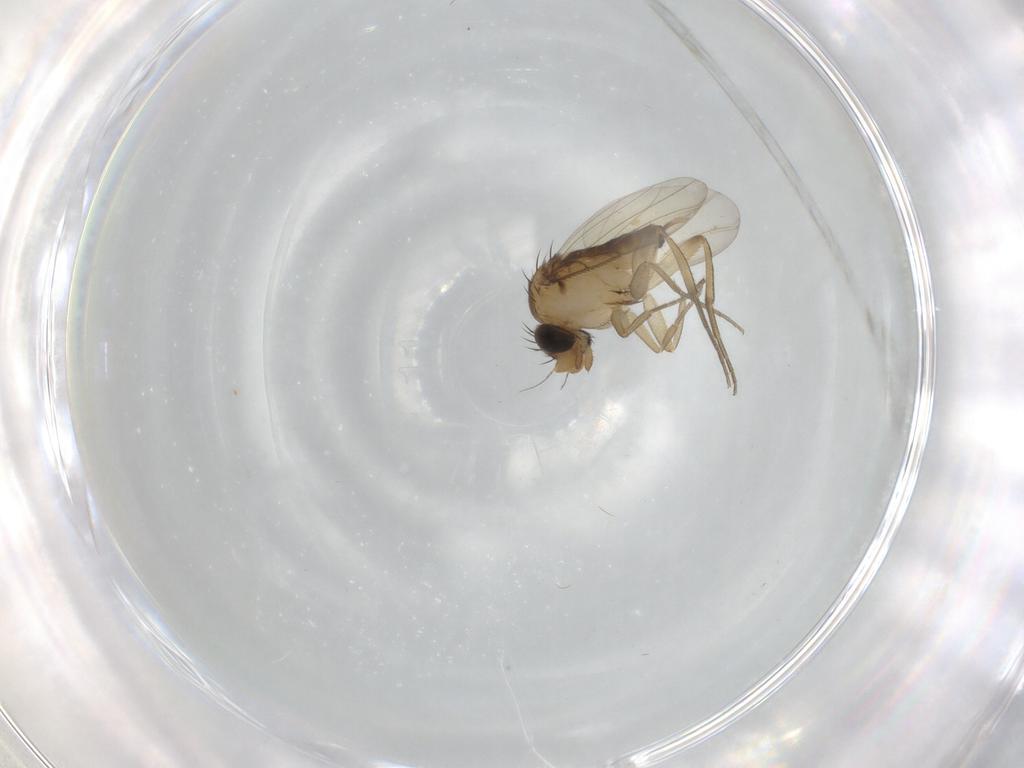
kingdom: Animalia
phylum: Arthropoda
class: Insecta
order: Diptera
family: Phoridae
